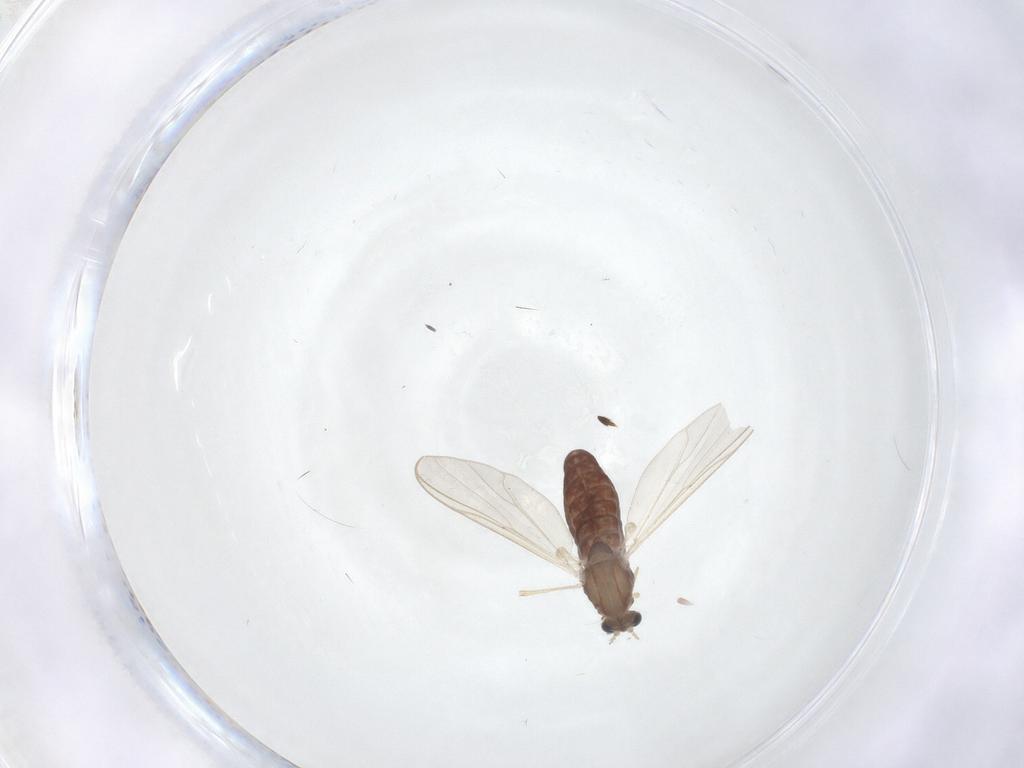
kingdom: Animalia
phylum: Arthropoda
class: Insecta
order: Diptera
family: Chironomidae
